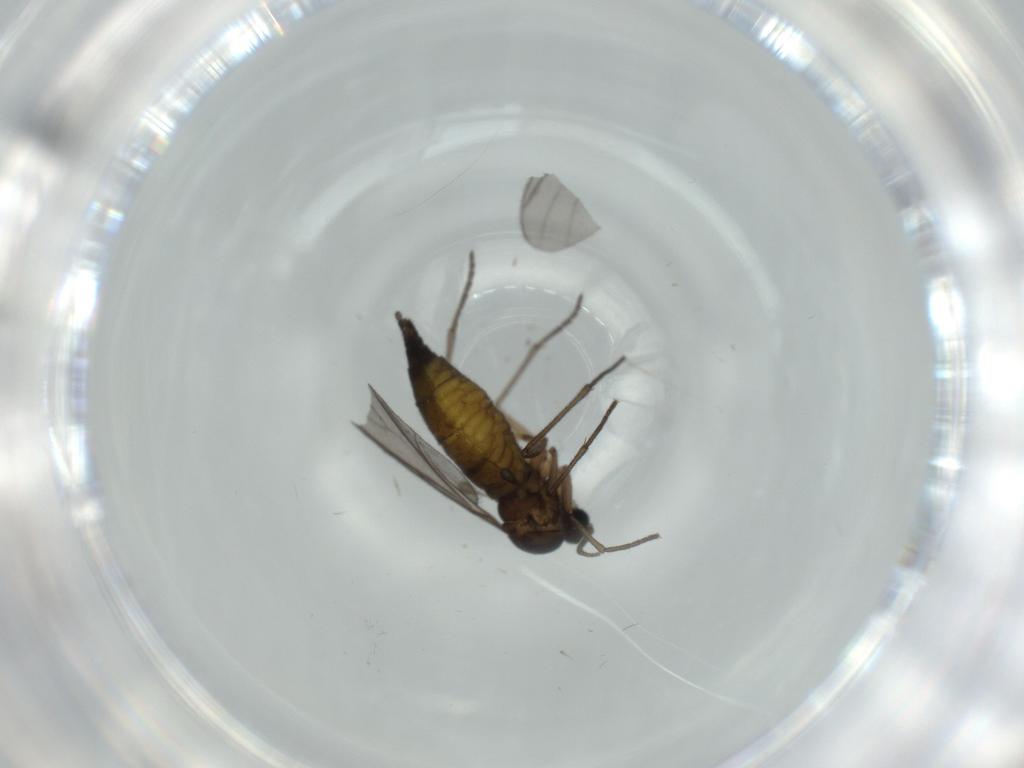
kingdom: Animalia
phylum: Arthropoda
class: Insecta
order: Diptera
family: Sciaridae
